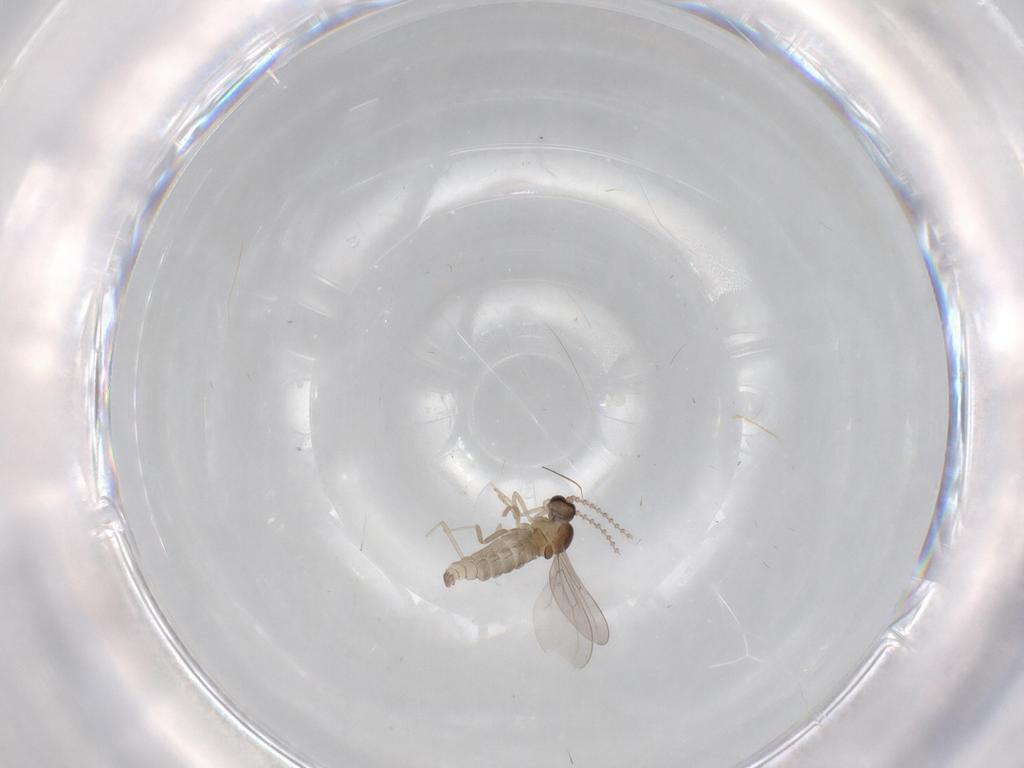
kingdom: Animalia
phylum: Arthropoda
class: Insecta
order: Diptera
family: Cecidomyiidae
